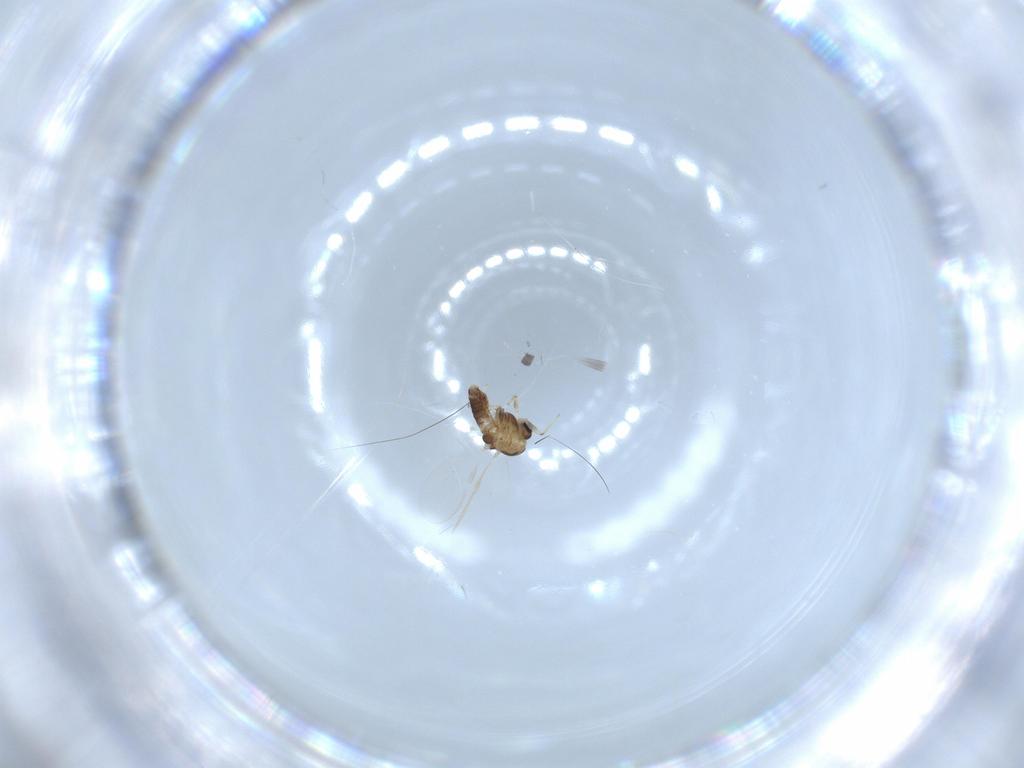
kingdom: Animalia
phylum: Arthropoda
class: Insecta
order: Diptera
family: Chironomidae
